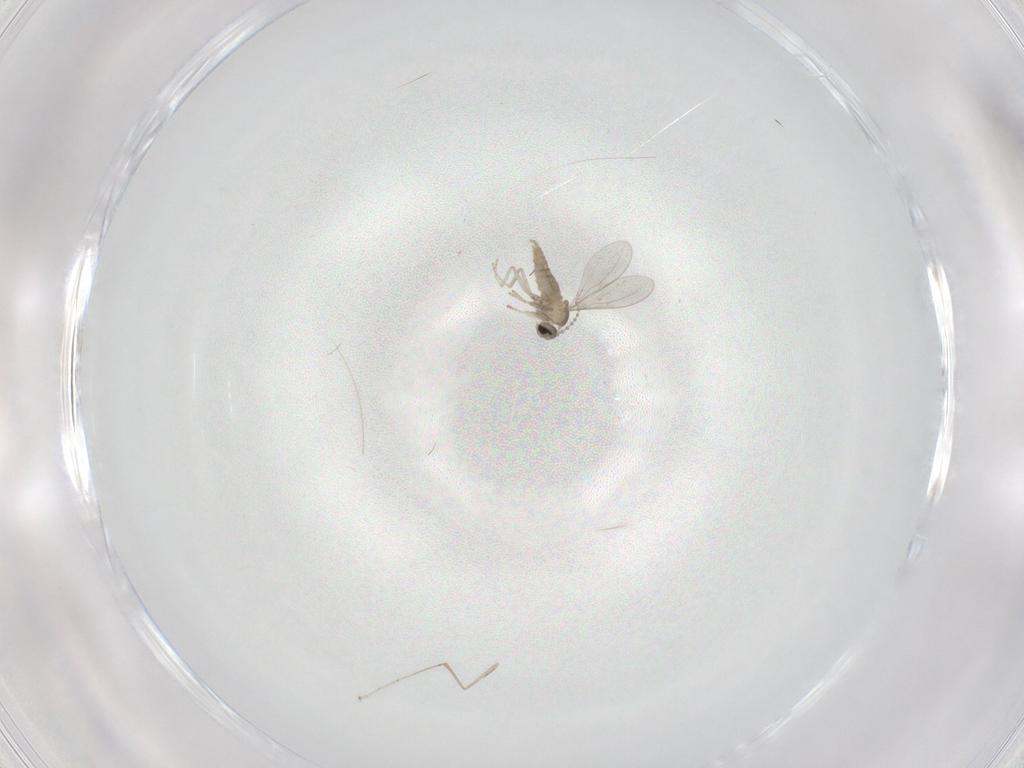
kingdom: Animalia
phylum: Arthropoda
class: Insecta
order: Diptera
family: Cecidomyiidae
